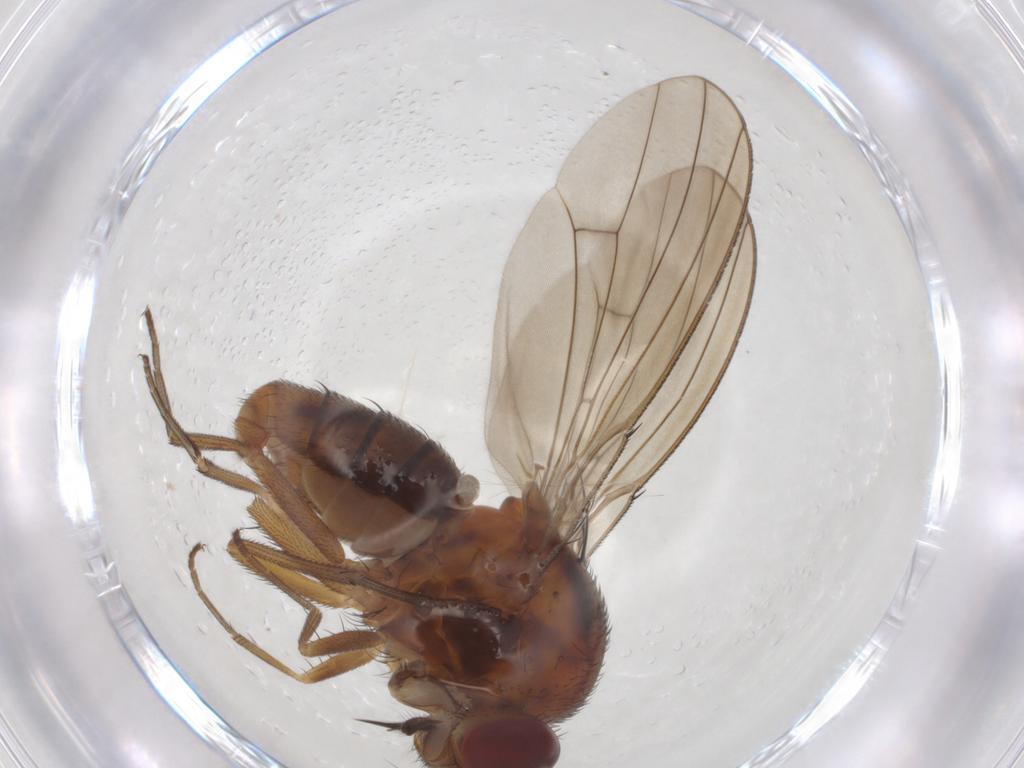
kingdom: Animalia
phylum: Arthropoda
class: Insecta
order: Diptera
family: Curtonotidae
